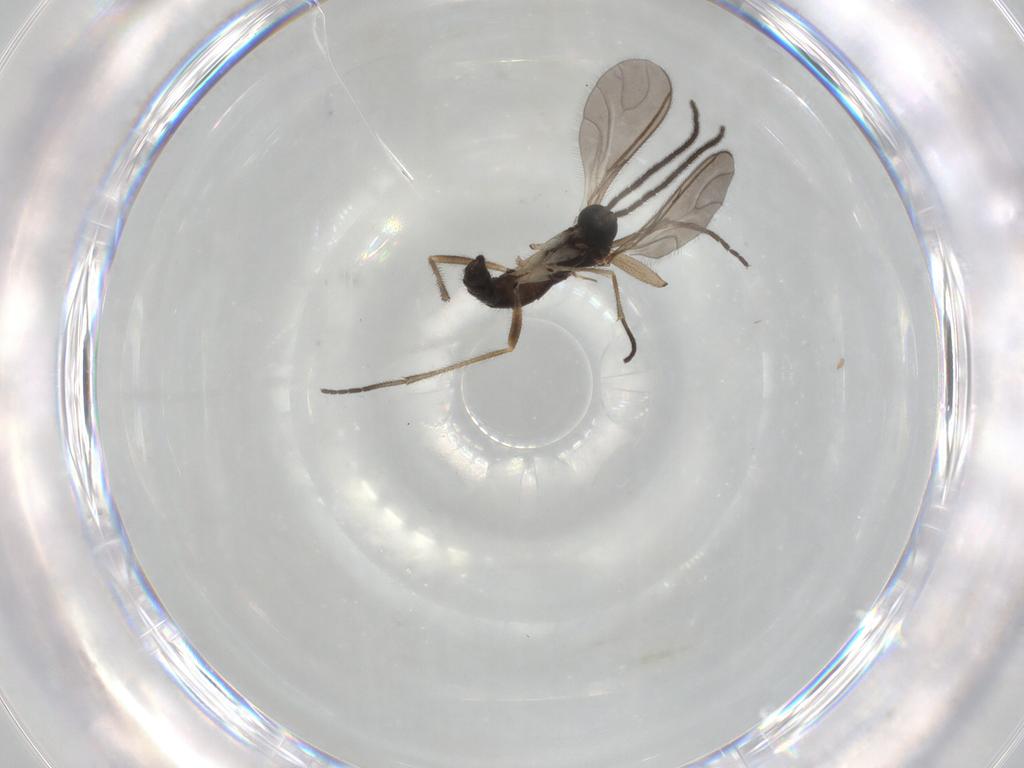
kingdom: Animalia
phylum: Arthropoda
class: Insecta
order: Diptera
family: Sciaridae
